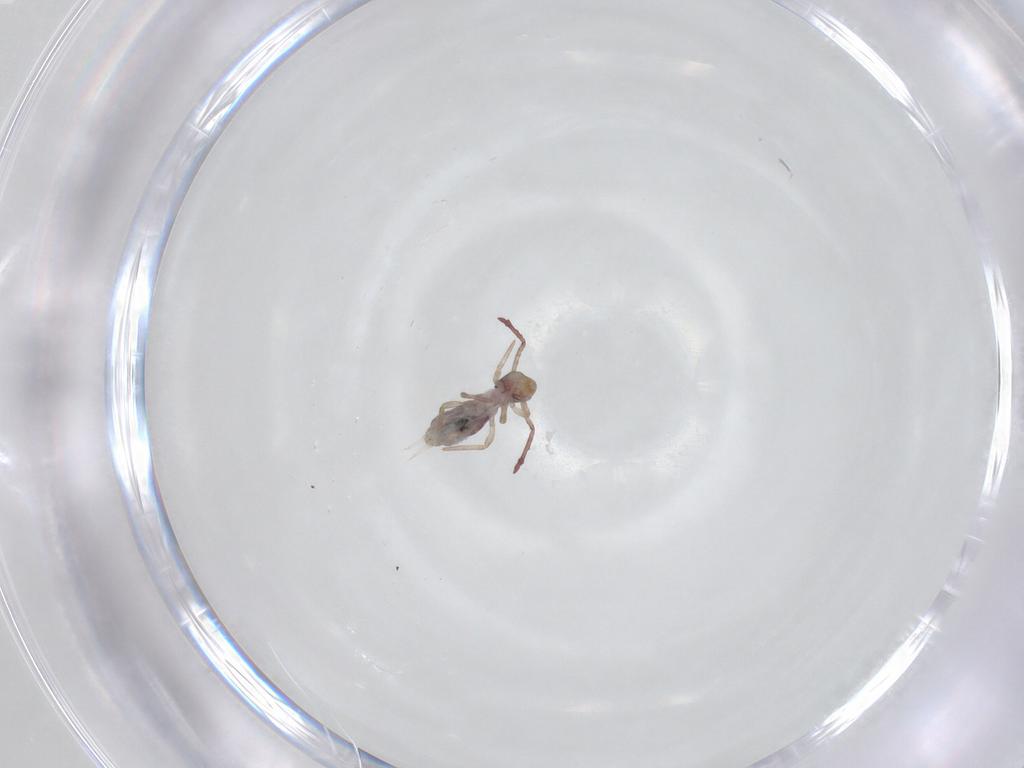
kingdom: Animalia
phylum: Arthropoda
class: Collembola
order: Symphypleona
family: Dicyrtomidae
